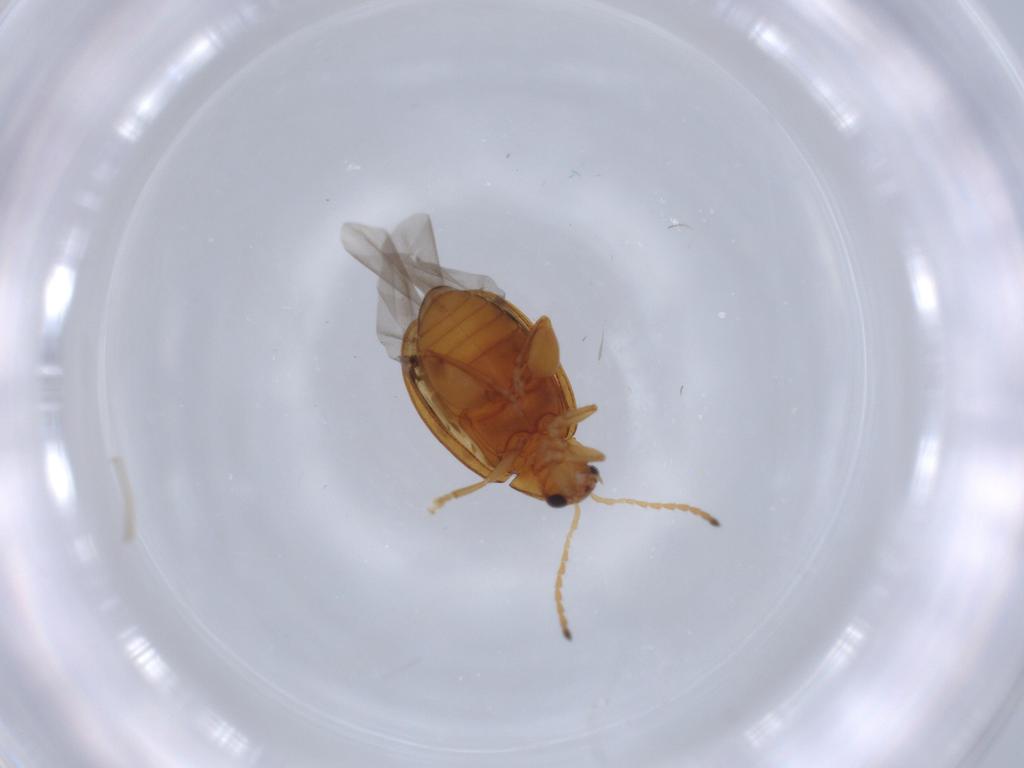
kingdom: Animalia
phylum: Arthropoda
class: Insecta
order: Coleoptera
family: Chrysomelidae
